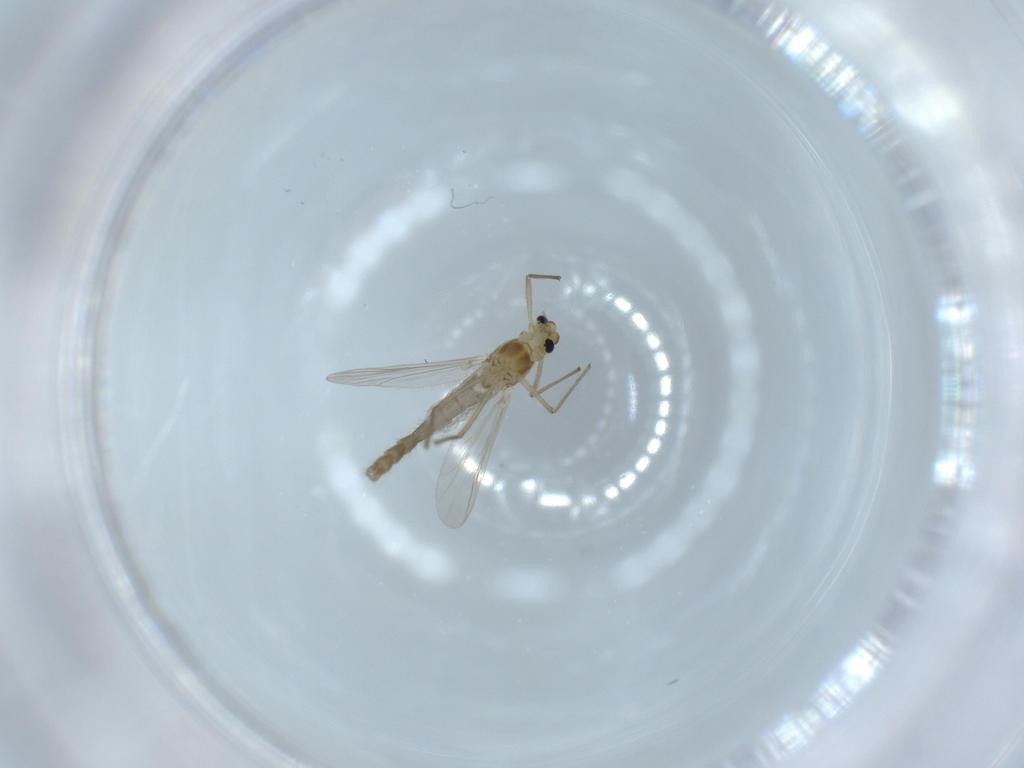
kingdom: Animalia
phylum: Arthropoda
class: Insecta
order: Diptera
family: Chironomidae
